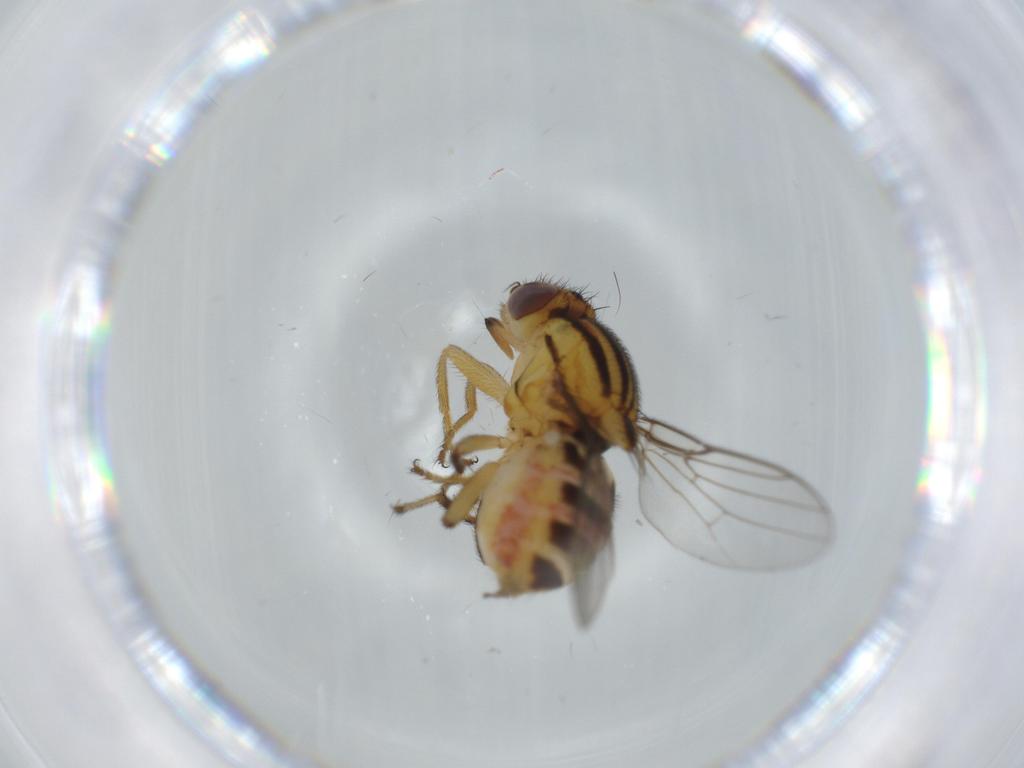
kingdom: Animalia
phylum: Arthropoda
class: Insecta
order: Diptera
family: Chloropidae
